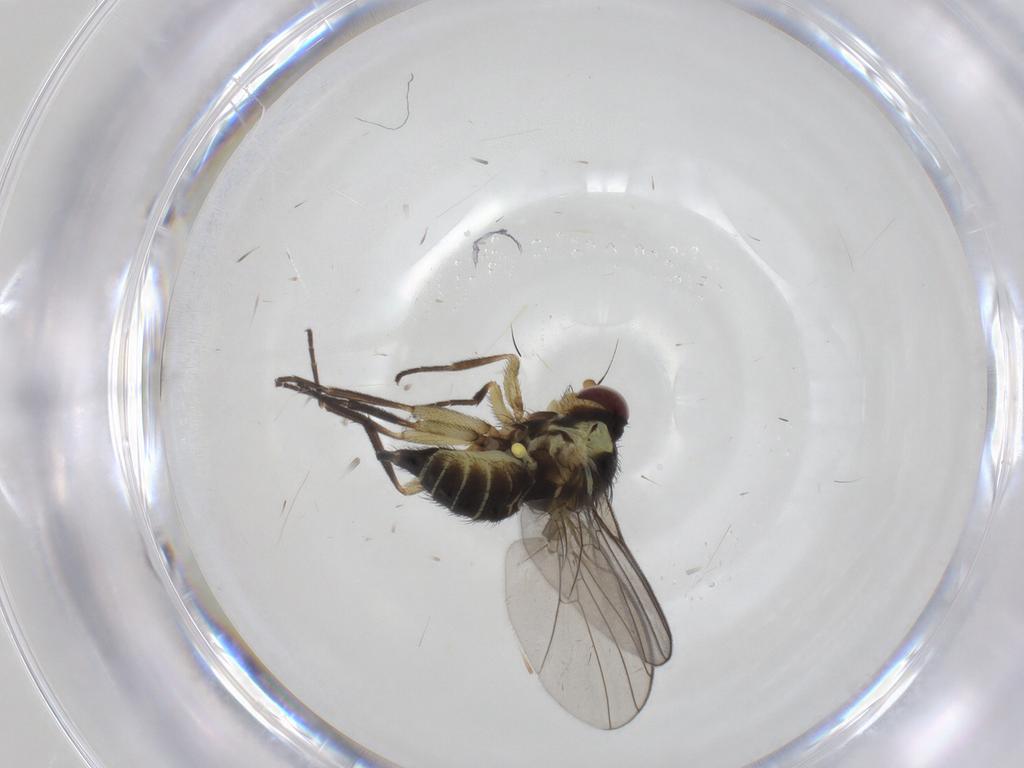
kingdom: Animalia
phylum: Arthropoda
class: Insecta
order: Diptera
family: Agromyzidae
